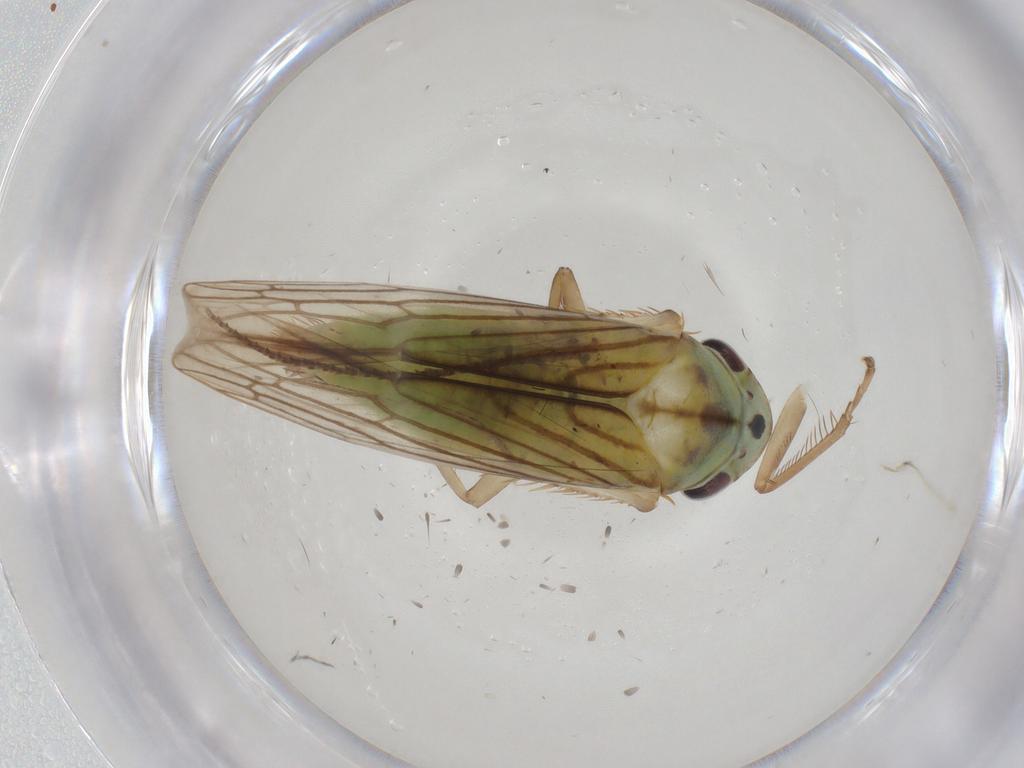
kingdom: Animalia
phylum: Arthropoda
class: Insecta
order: Hemiptera
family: Cicadellidae
